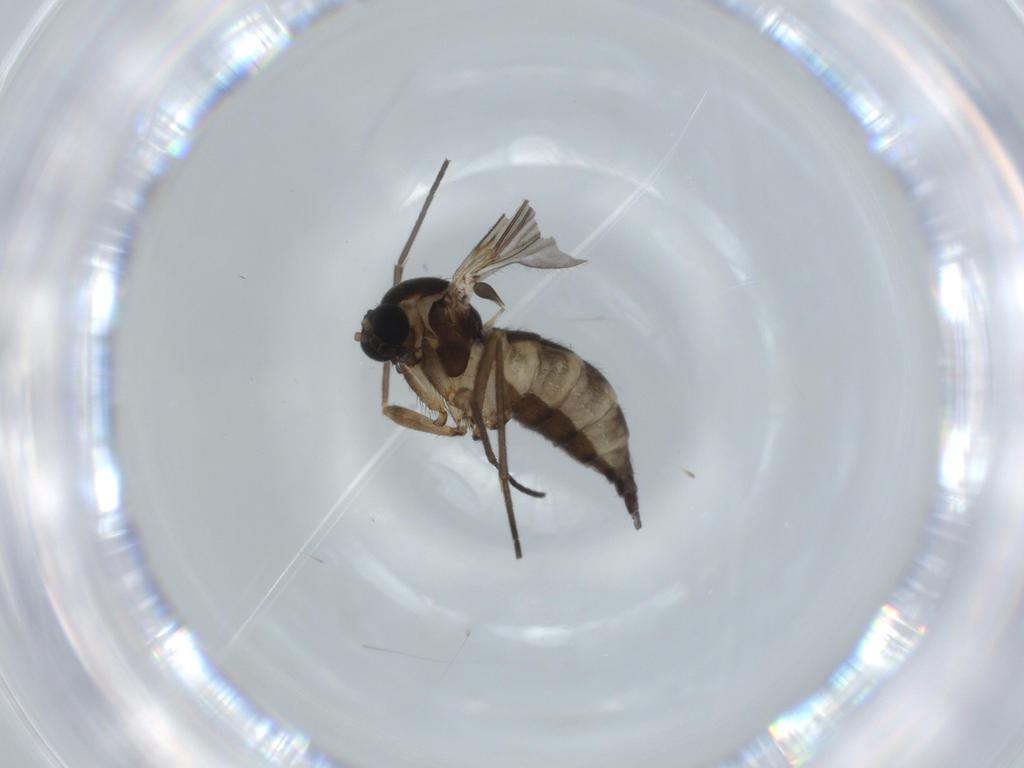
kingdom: Animalia
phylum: Arthropoda
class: Insecta
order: Diptera
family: Sciaridae
